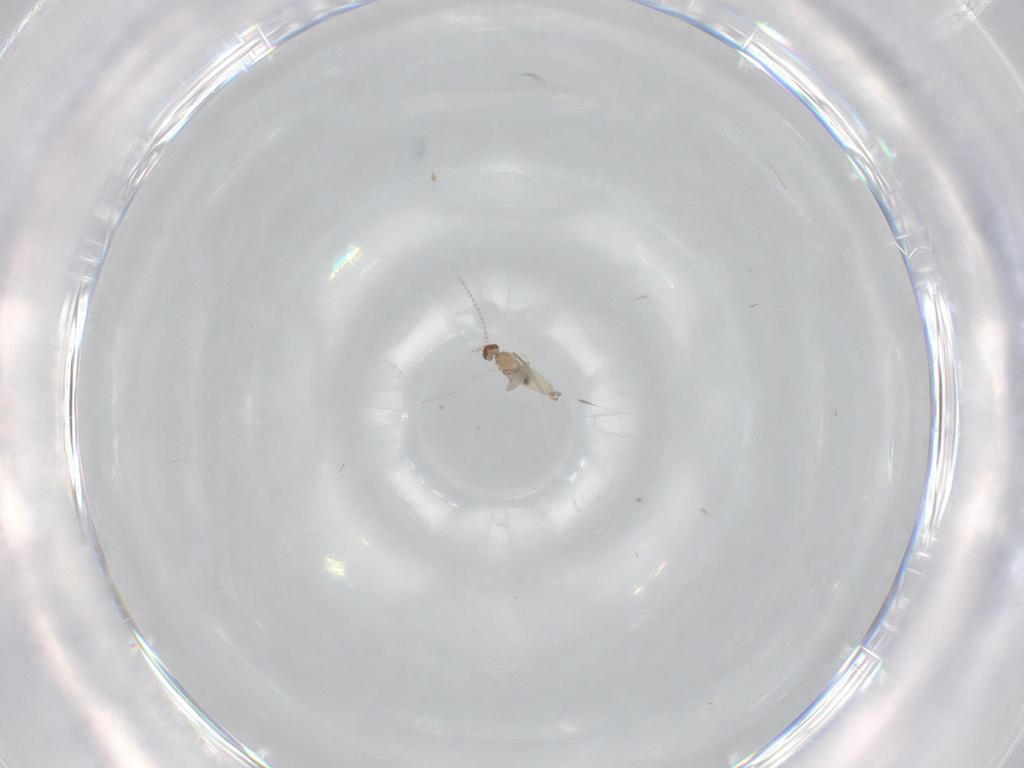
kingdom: Animalia
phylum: Arthropoda
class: Insecta
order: Diptera
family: Cecidomyiidae
